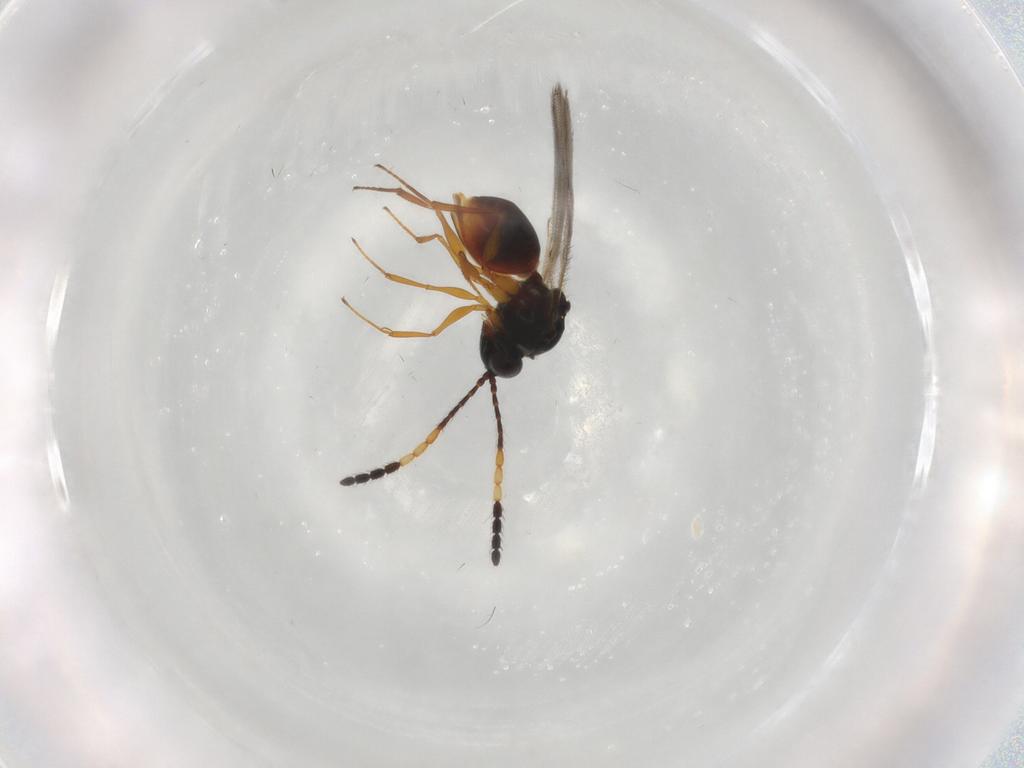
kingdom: Animalia
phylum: Arthropoda
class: Insecta
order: Hymenoptera
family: Figitidae
